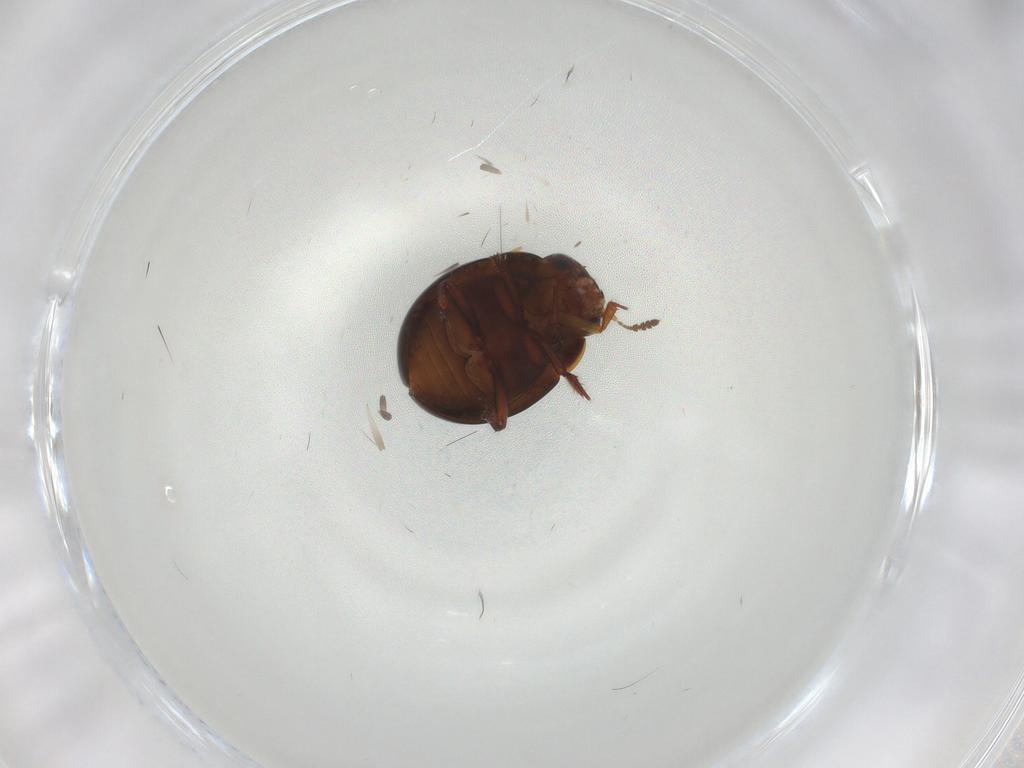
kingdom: Animalia
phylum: Arthropoda
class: Insecta
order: Coleoptera
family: Leiodidae
